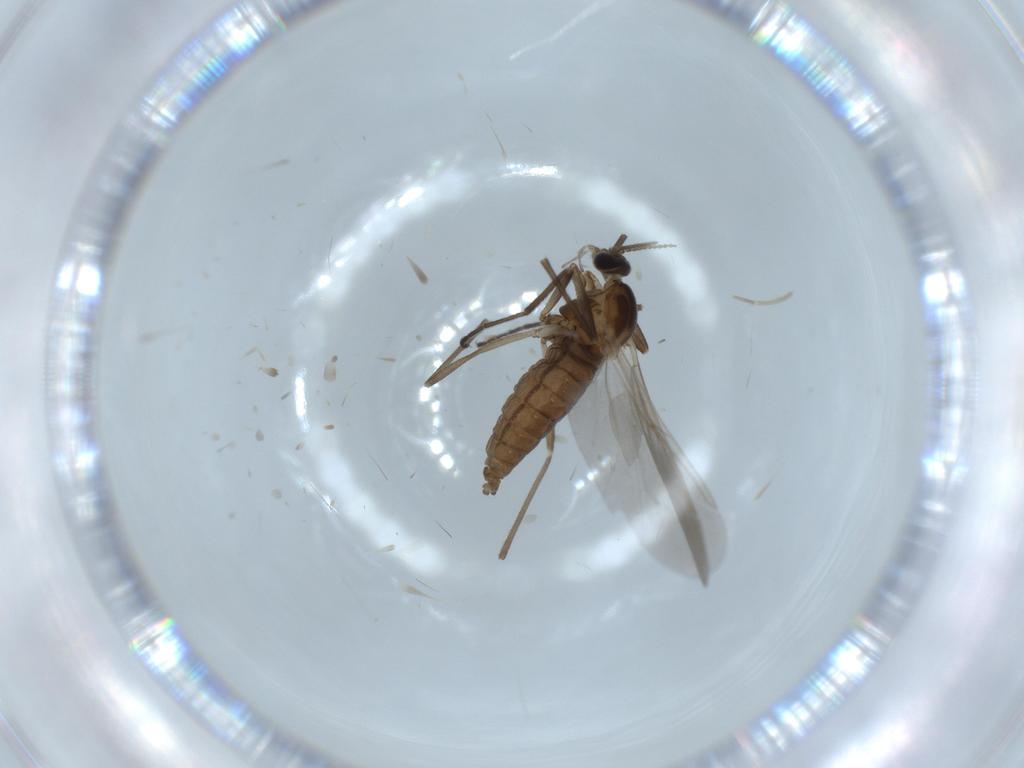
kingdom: Animalia
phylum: Arthropoda
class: Insecta
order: Diptera
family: Cecidomyiidae
